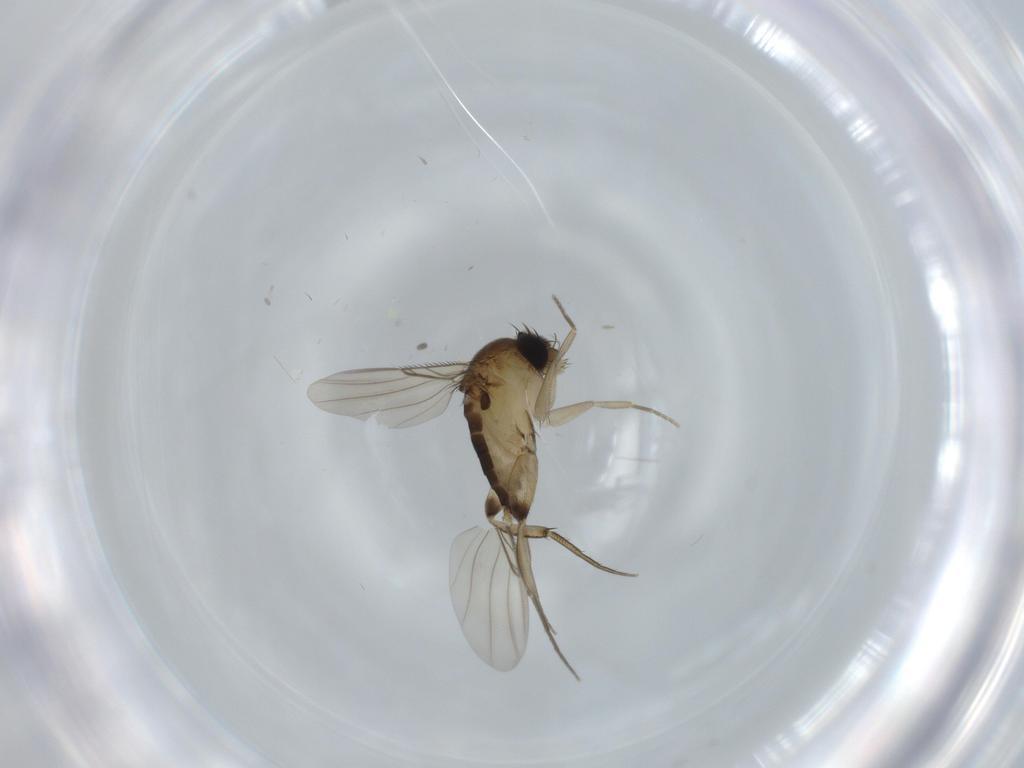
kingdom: Animalia
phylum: Arthropoda
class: Insecta
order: Diptera
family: Phoridae
